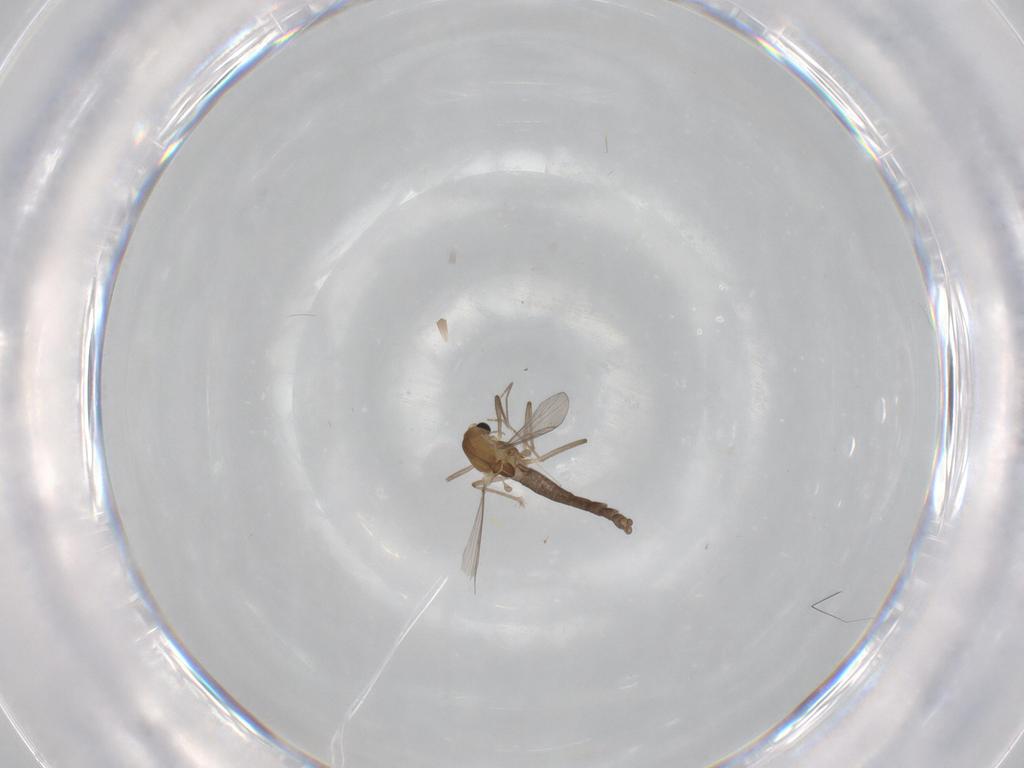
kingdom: Animalia
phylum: Arthropoda
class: Insecta
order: Diptera
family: Chironomidae
